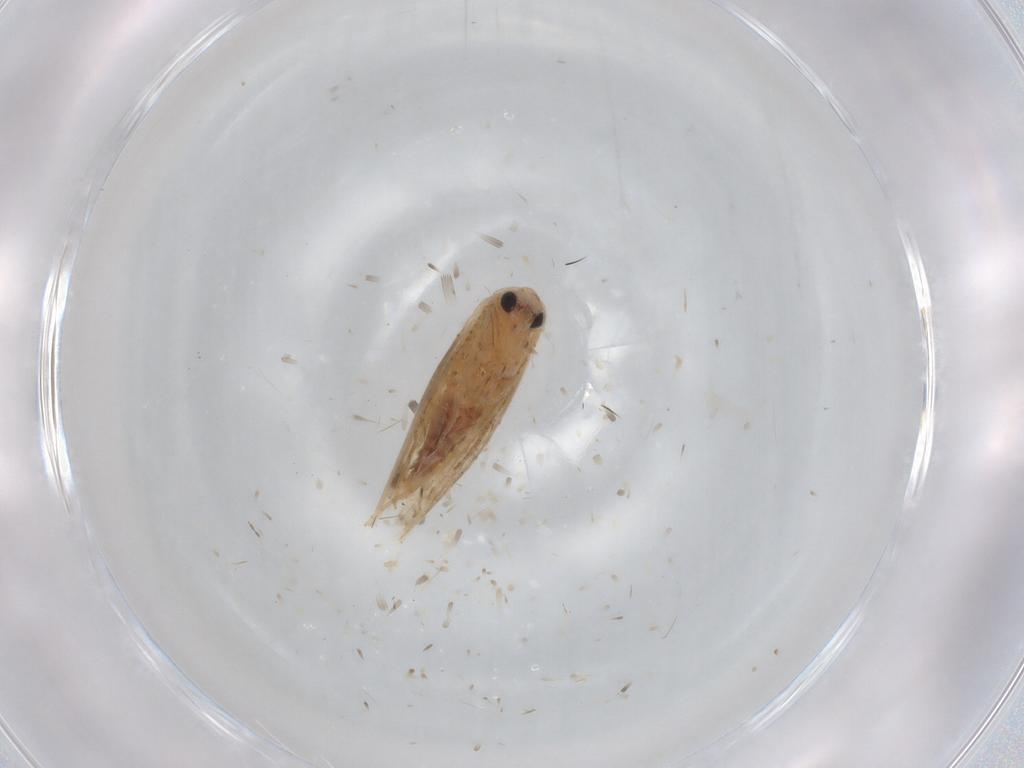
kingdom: Animalia
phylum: Arthropoda
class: Insecta
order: Lepidoptera
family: Bucculatricidae
